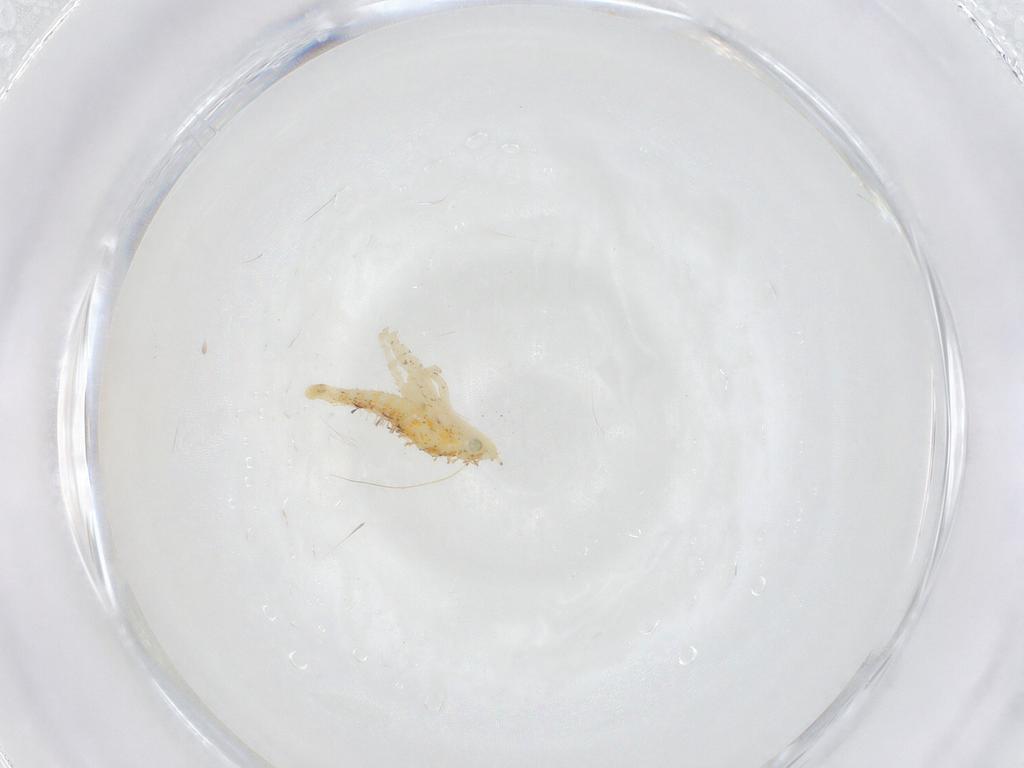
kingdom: Animalia
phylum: Arthropoda
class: Insecta
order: Hemiptera
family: Cicadellidae
